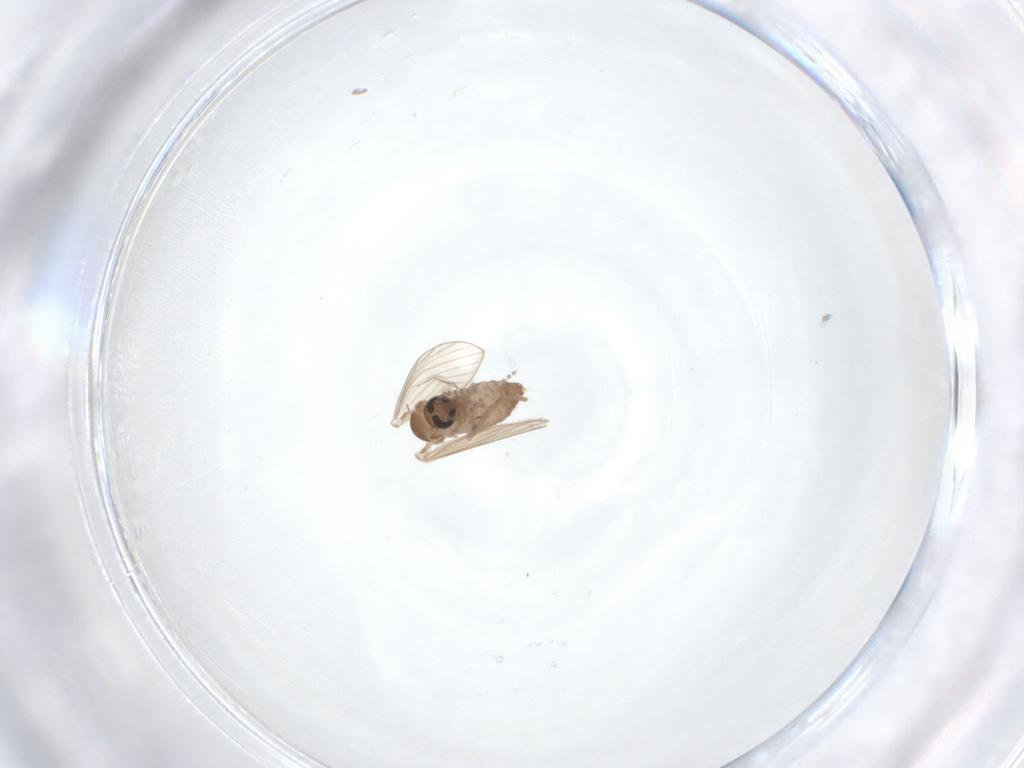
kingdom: Animalia
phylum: Arthropoda
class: Insecta
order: Diptera
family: Psychodidae
